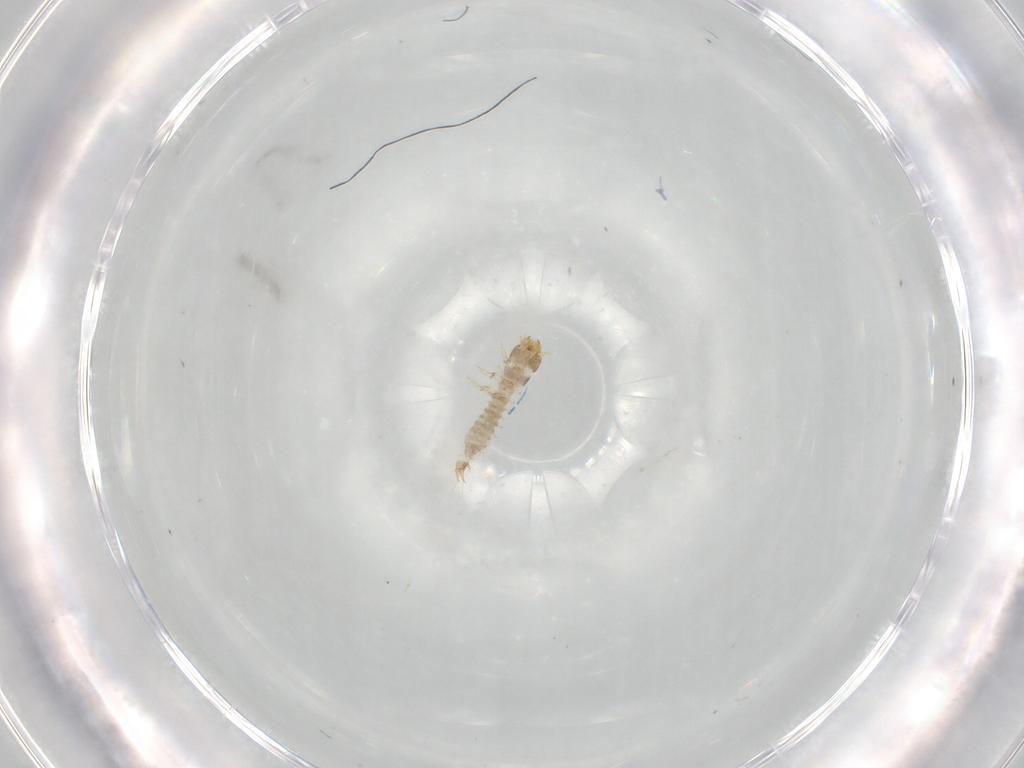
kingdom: Animalia
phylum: Arthropoda
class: Insecta
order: Coleoptera
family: Nitidulidae
